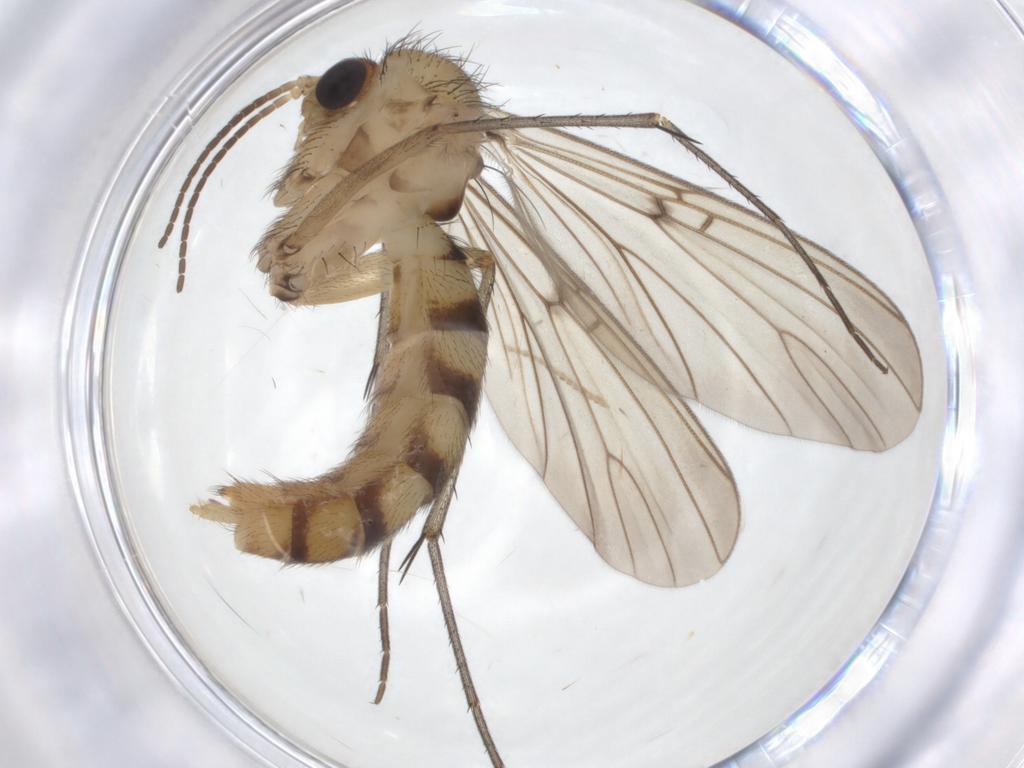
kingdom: Animalia
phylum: Arthropoda
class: Insecta
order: Diptera
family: Mycetophilidae
